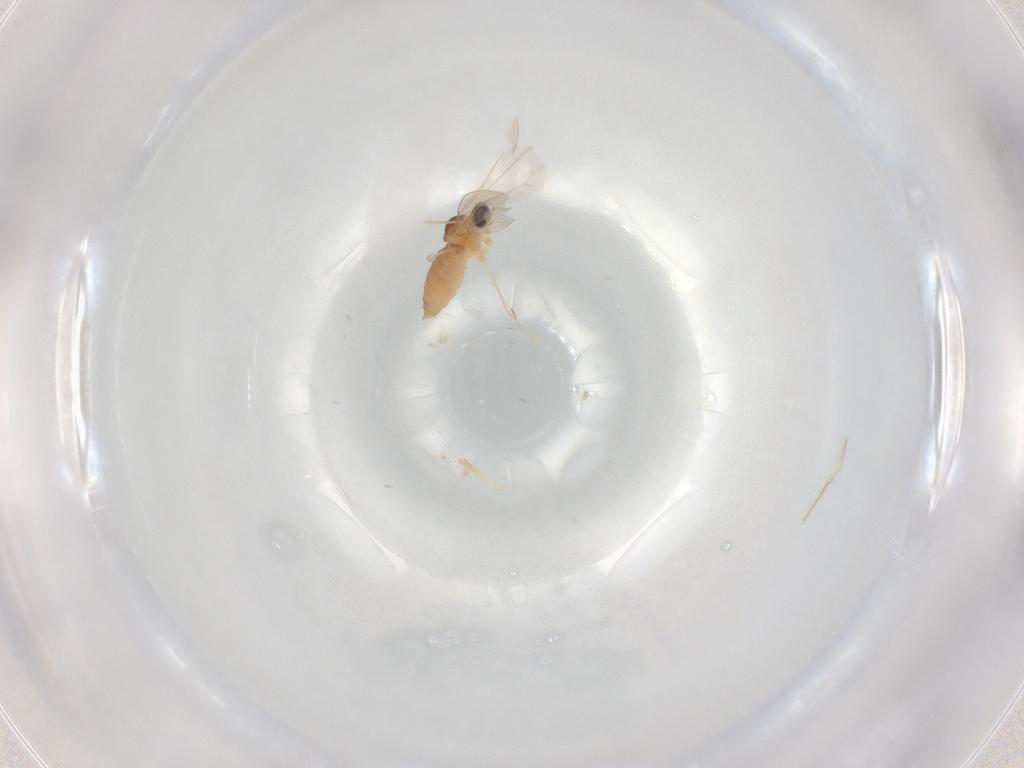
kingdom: Animalia
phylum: Arthropoda
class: Insecta
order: Diptera
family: Cecidomyiidae
